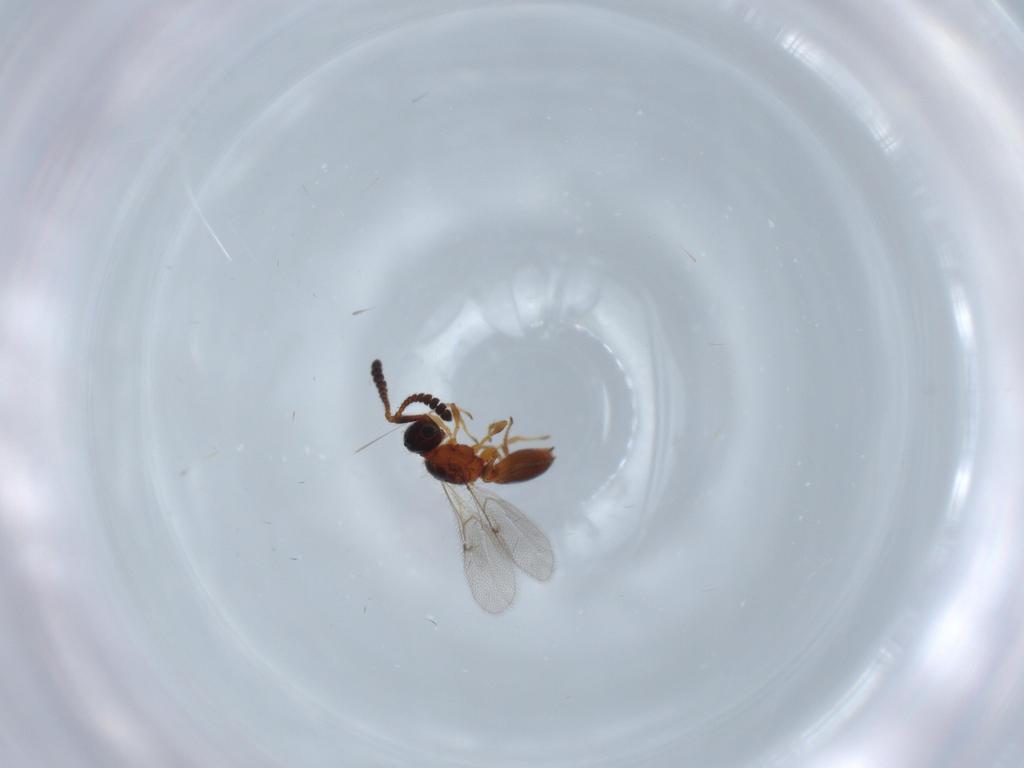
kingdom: Animalia
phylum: Arthropoda
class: Insecta
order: Hymenoptera
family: Diapriidae
